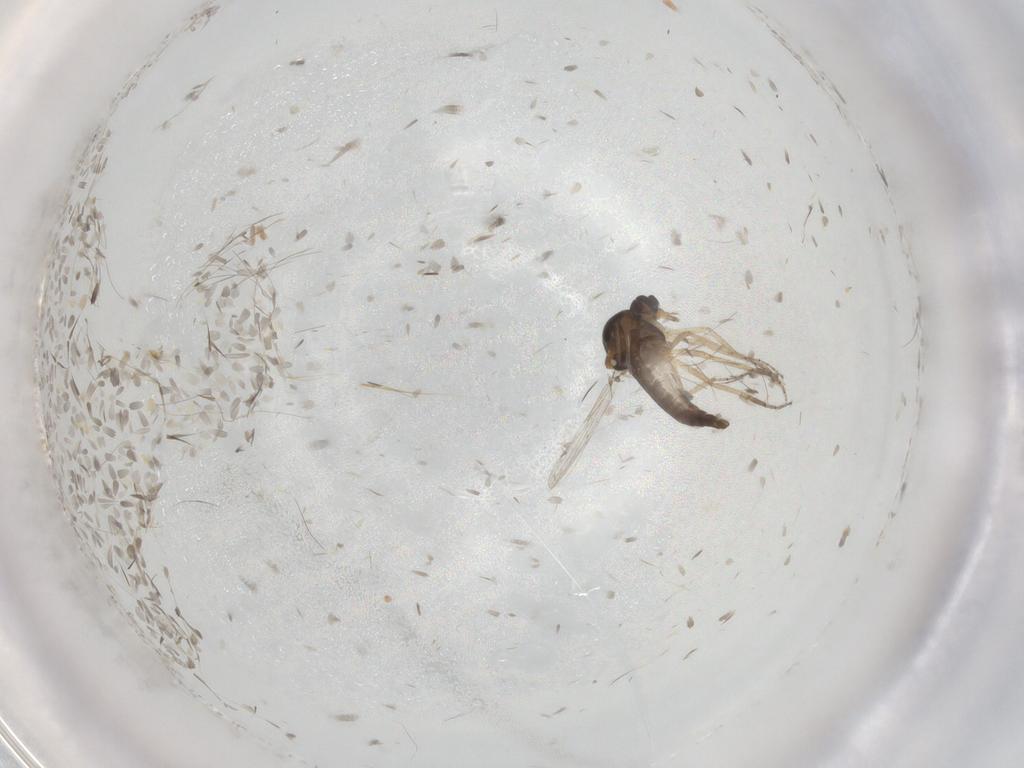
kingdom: Animalia
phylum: Arthropoda
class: Insecta
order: Diptera
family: Ceratopogonidae
